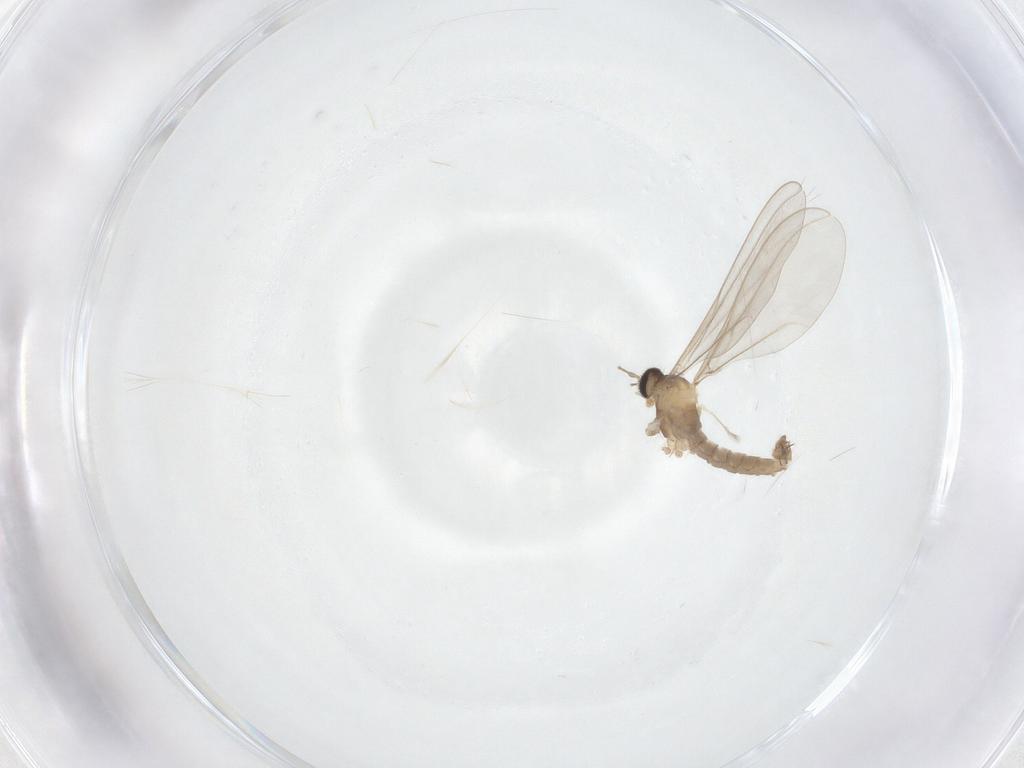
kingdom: Animalia
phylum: Arthropoda
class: Insecta
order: Diptera
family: Cecidomyiidae
